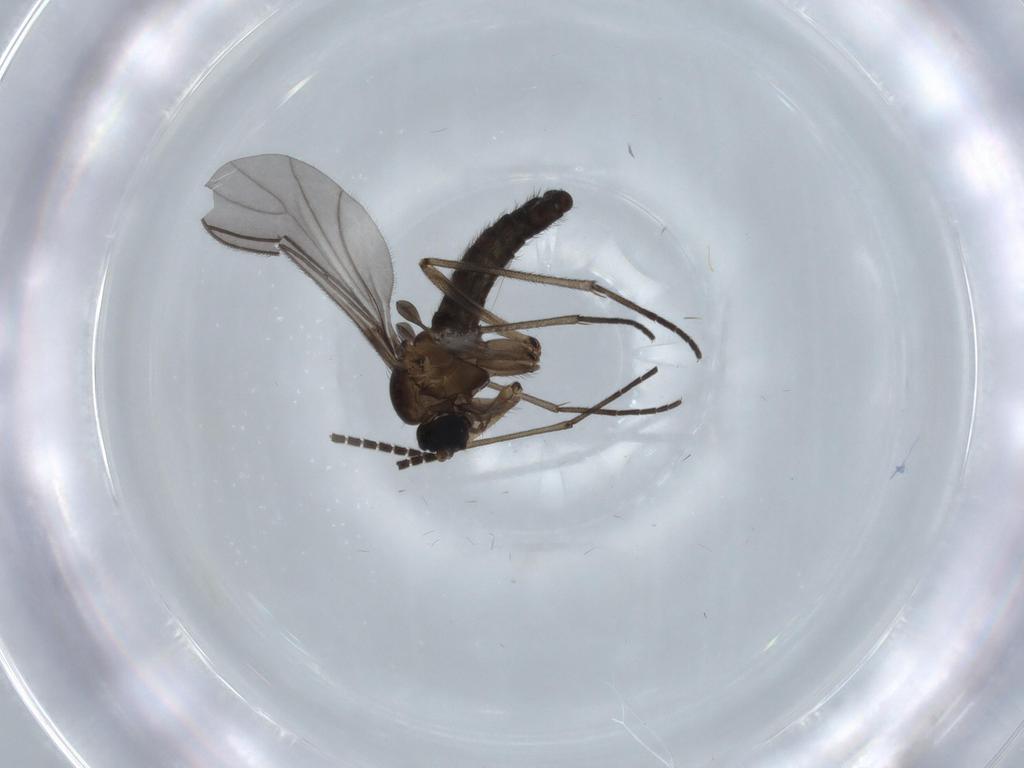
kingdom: Animalia
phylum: Arthropoda
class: Insecta
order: Diptera
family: Sciaridae
